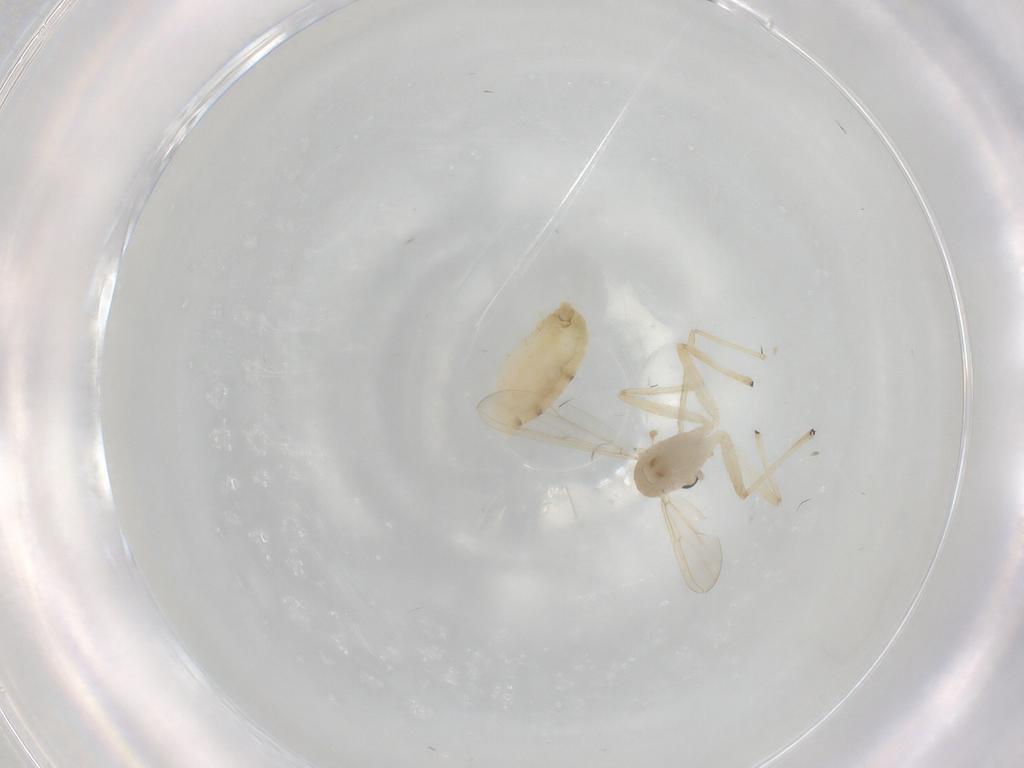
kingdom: Animalia
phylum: Arthropoda
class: Insecta
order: Diptera
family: Chironomidae
